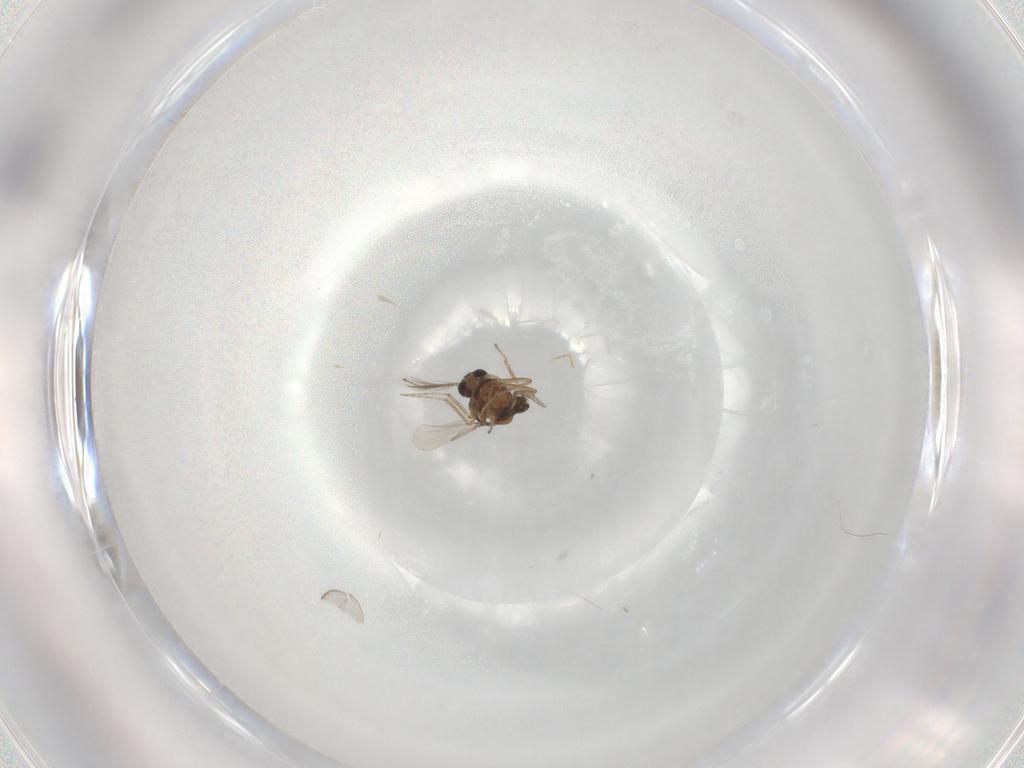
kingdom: Animalia
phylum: Arthropoda
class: Insecta
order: Diptera
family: Ceratopogonidae
